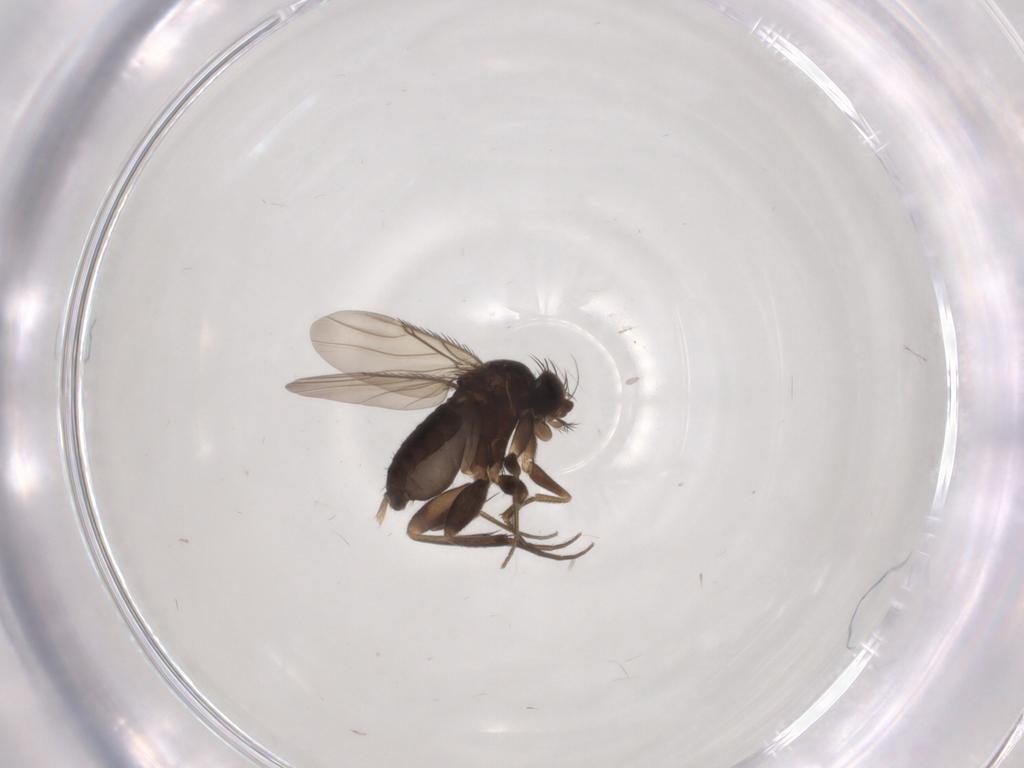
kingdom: Animalia
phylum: Arthropoda
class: Insecta
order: Diptera
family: Phoridae
